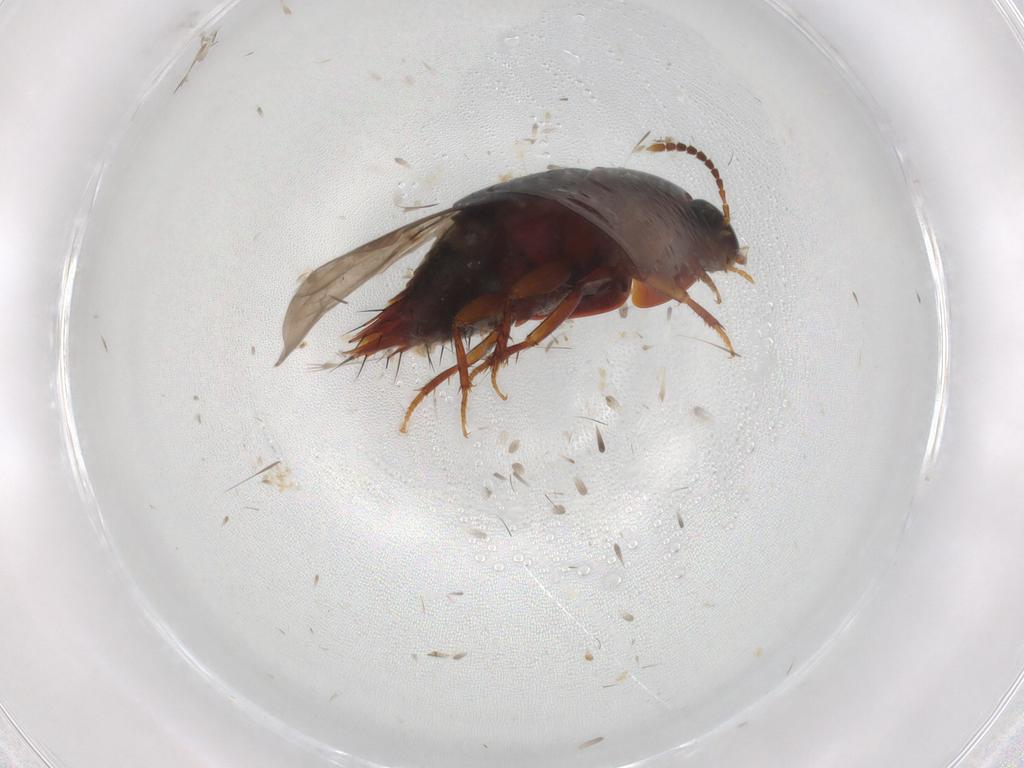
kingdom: Animalia
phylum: Arthropoda
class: Insecta
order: Coleoptera
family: Staphylinidae
